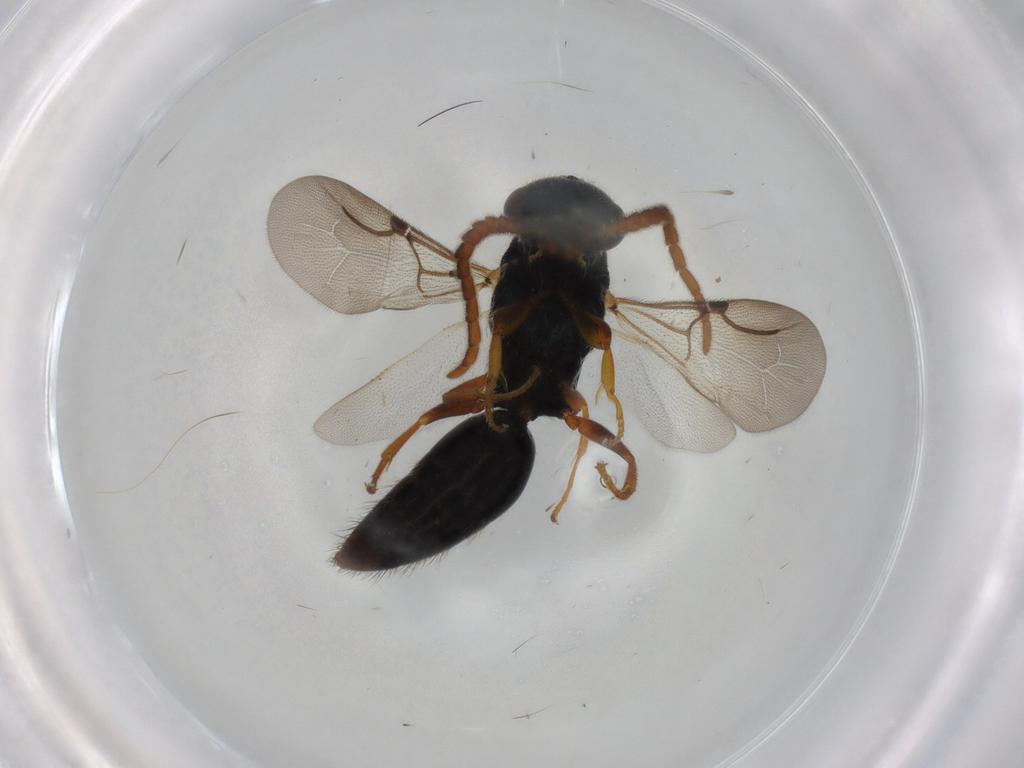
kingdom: Animalia
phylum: Arthropoda
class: Insecta
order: Hymenoptera
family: Bethylidae
